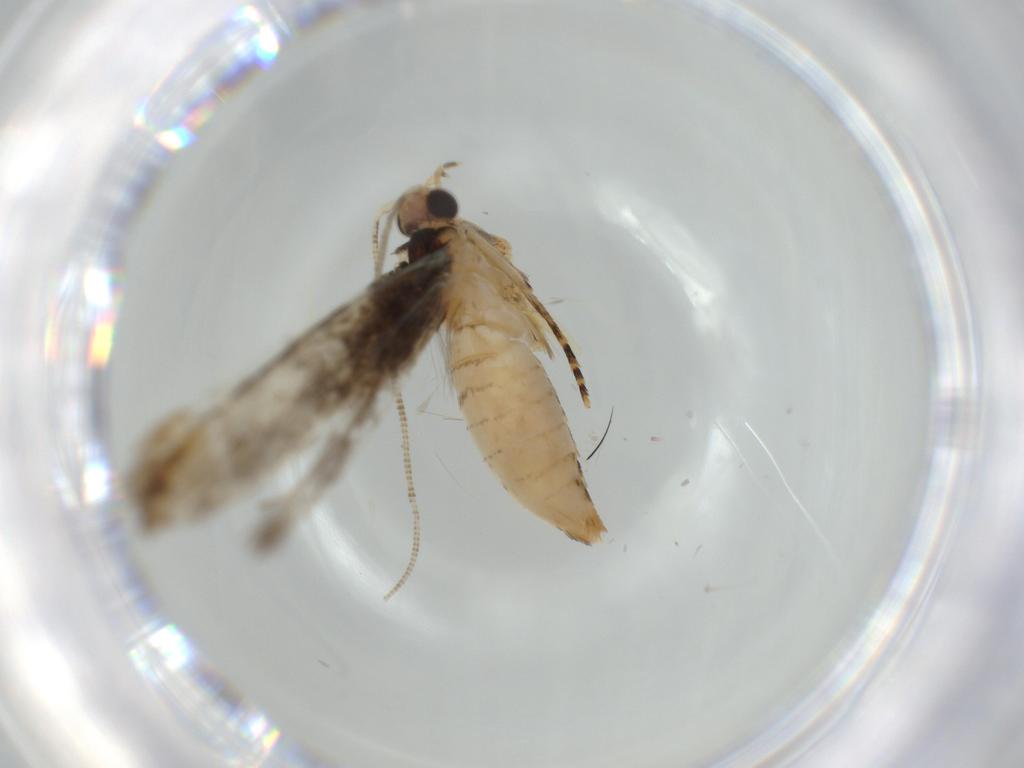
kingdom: Animalia
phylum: Arthropoda
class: Insecta
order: Lepidoptera
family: Tineidae
